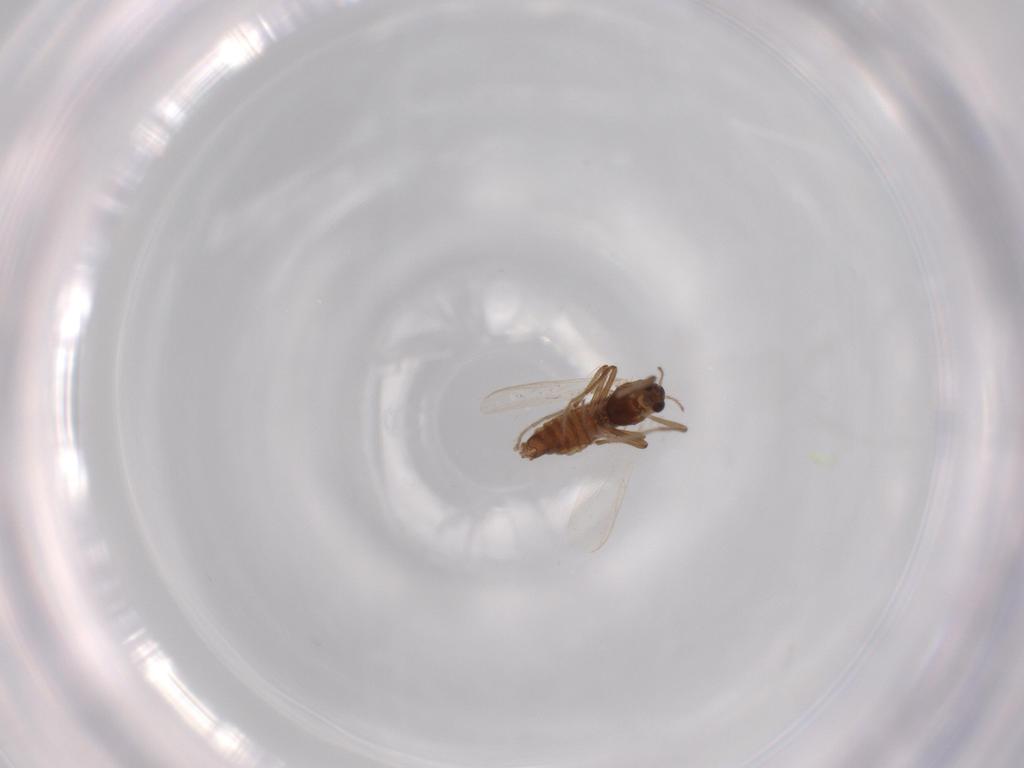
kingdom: Animalia
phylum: Arthropoda
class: Insecta
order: Diptera
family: Chironomidae
